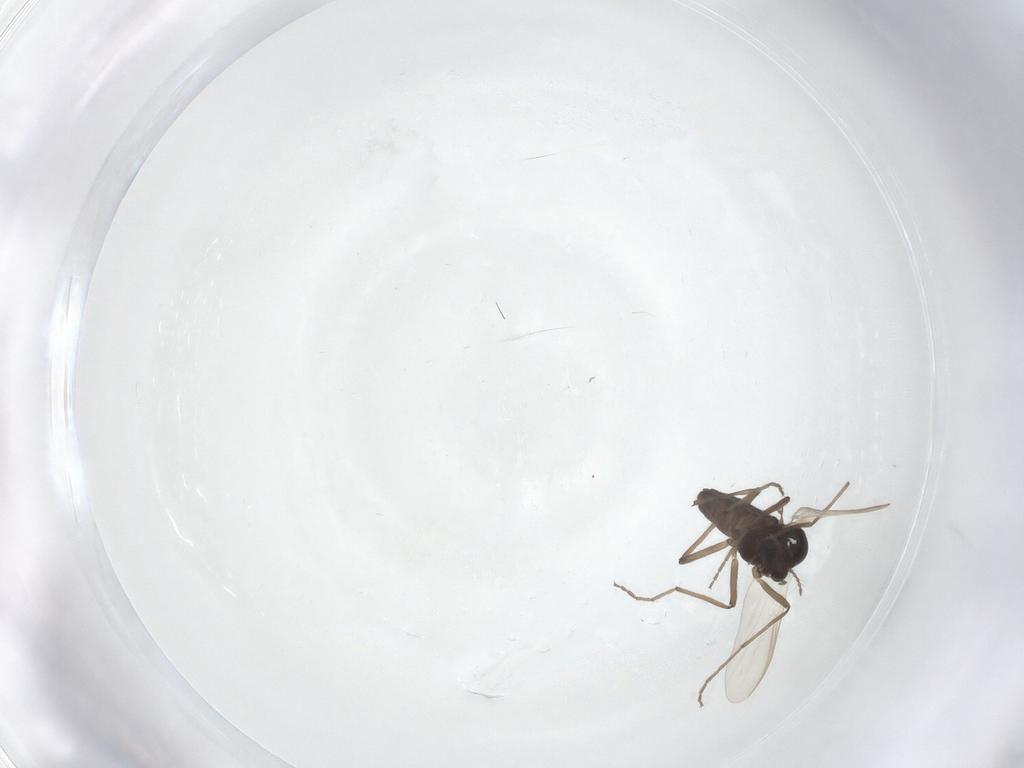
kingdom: Animalia
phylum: Arthropoda
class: Insecta
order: Diptera
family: Chironomidae
